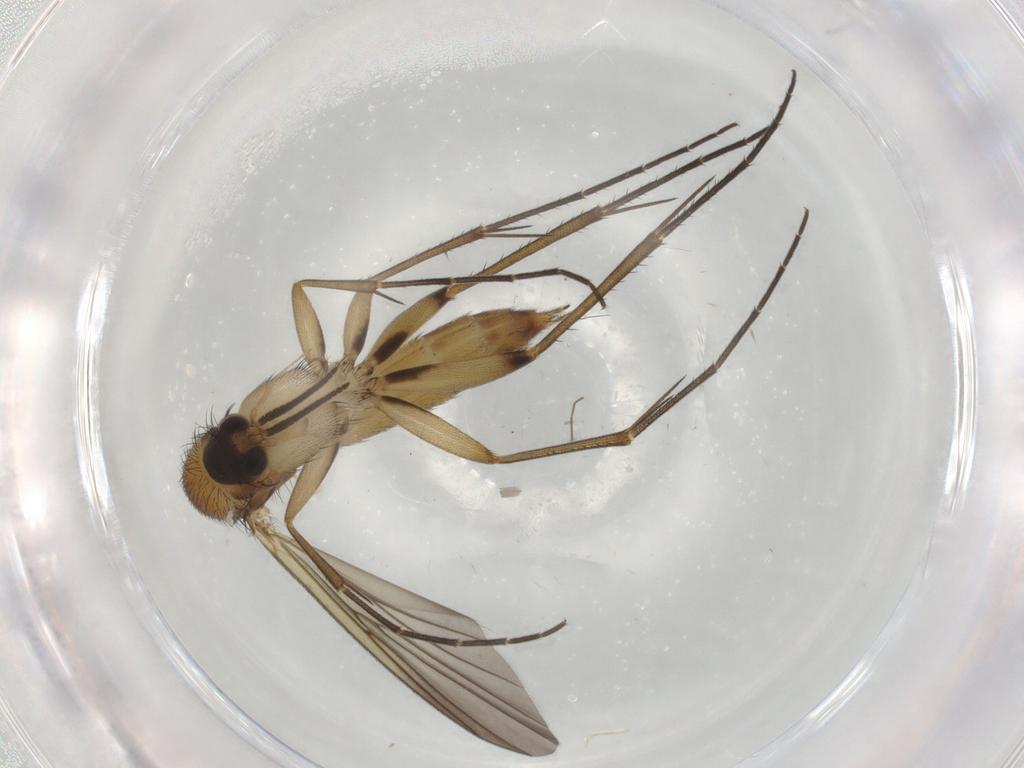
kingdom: Animalia
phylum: Arthropoda
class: Insecta
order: Diptera
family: Mycetophilidae
